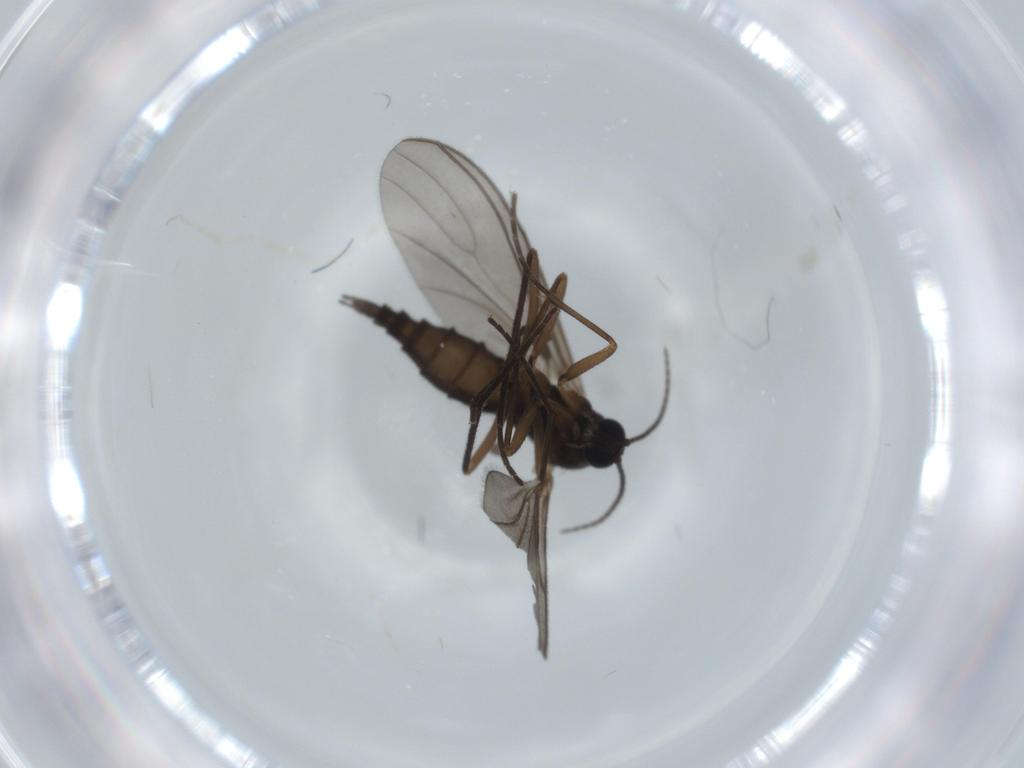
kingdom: Animalia
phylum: Arthropoda
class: Insecta
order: Diptera
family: Sciaridae
